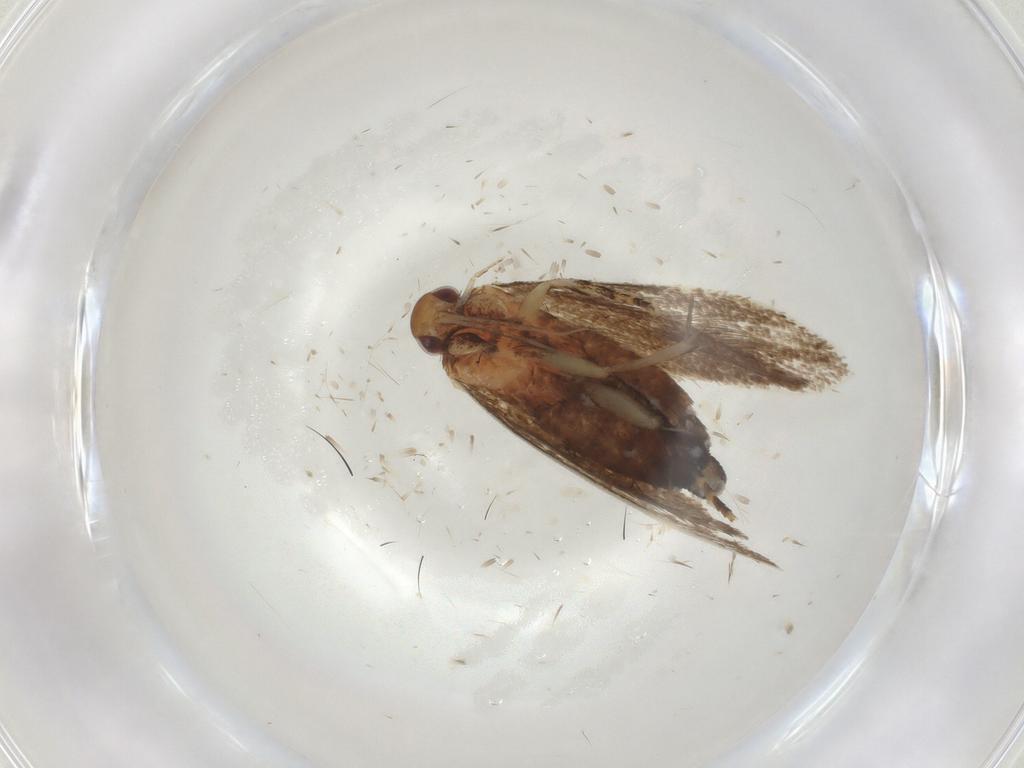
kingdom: Animalia
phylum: Arthropoda
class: Insecta
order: Lepidoptera
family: Oecophoridae
